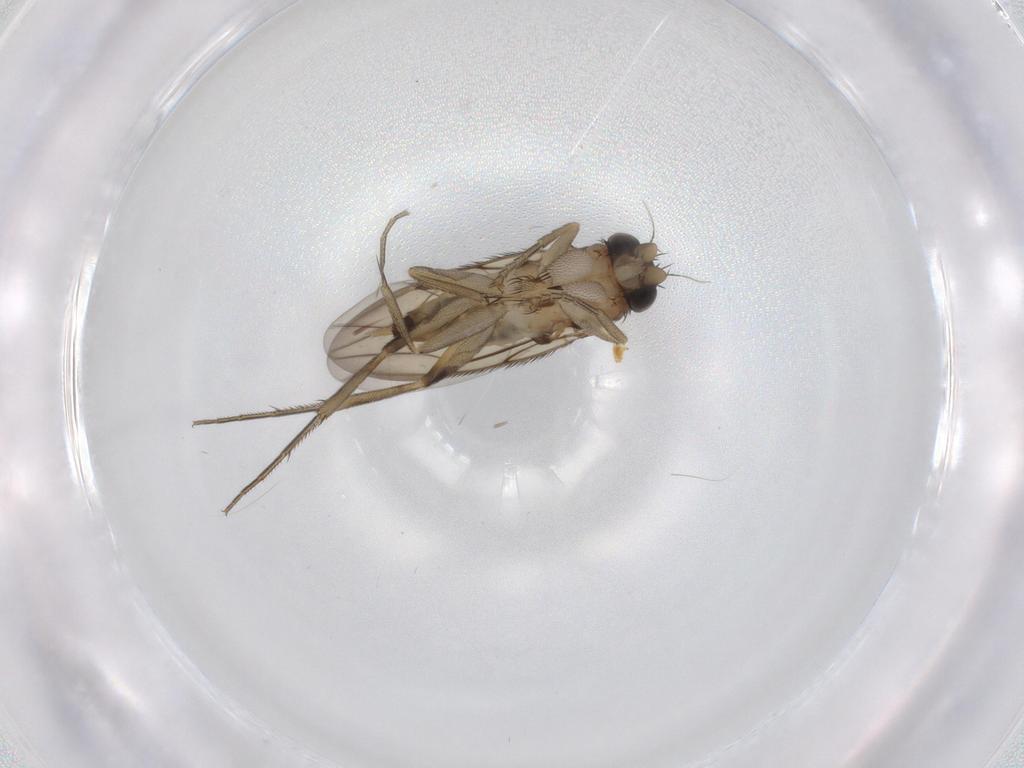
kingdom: Animalia
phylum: Arthropoda
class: Insecta
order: Diptera
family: Phoridae
